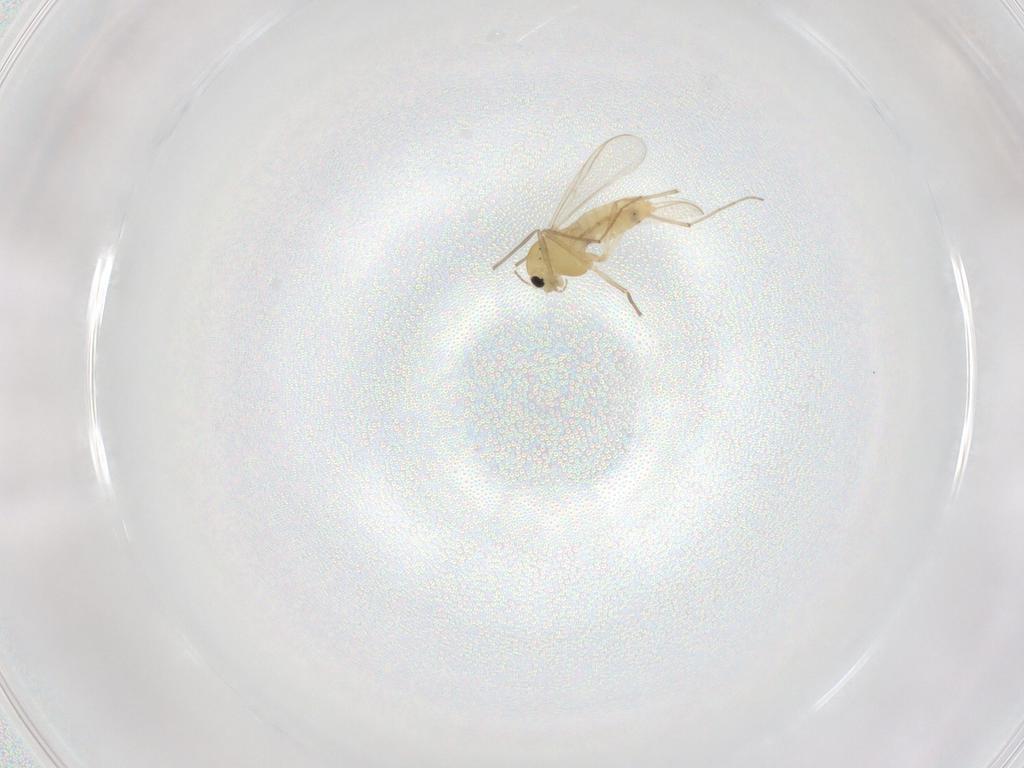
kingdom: Animalia
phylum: Arthropoda
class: Insecta
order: Diptera
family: Chironomidae
